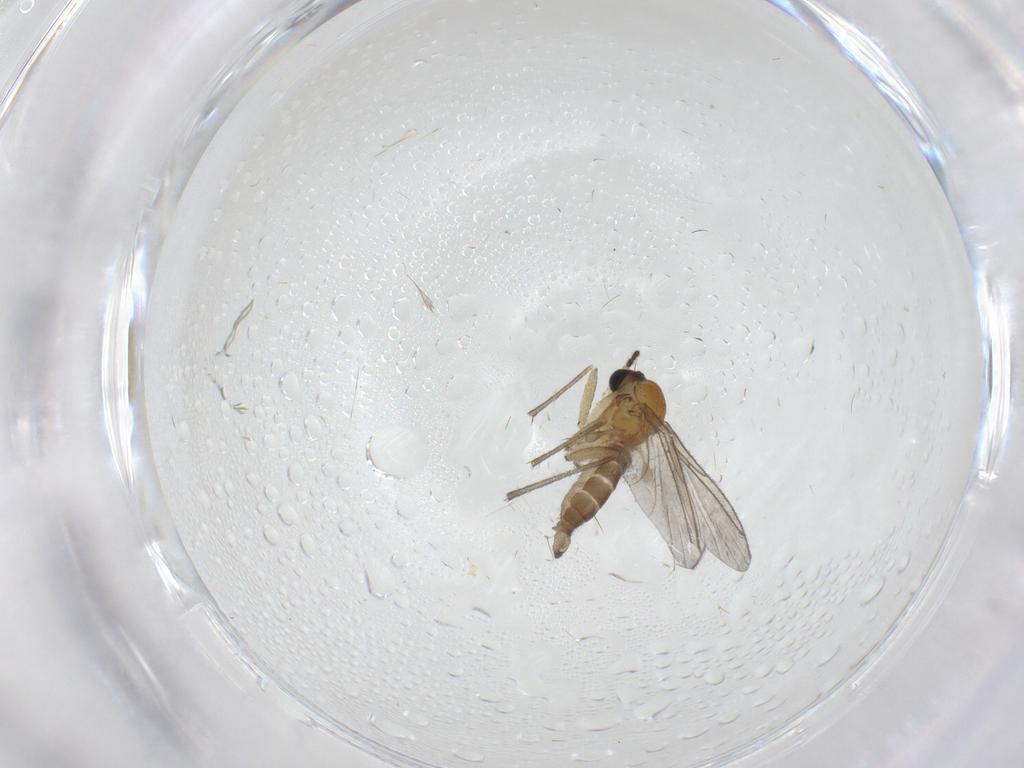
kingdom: Animalia
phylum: Arthropoda
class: Insecta
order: Diptera
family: Sciaridae
